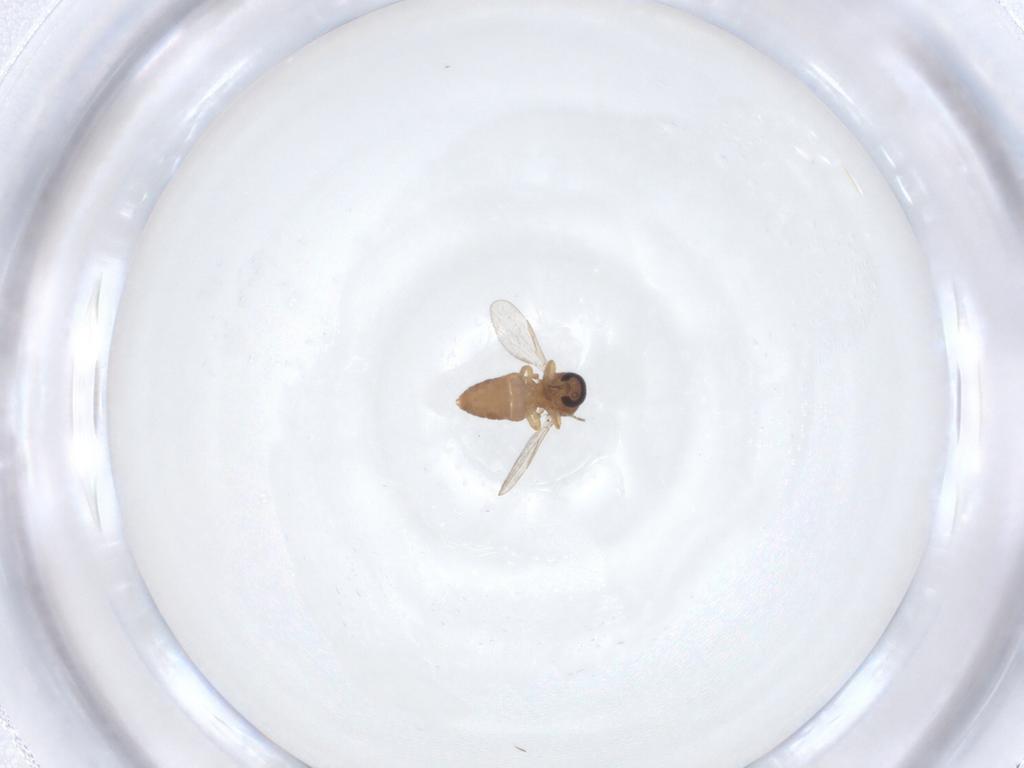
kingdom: Animalia
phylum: Arthropoda
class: Insecta
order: Diptera
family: Ceratopogonidae
